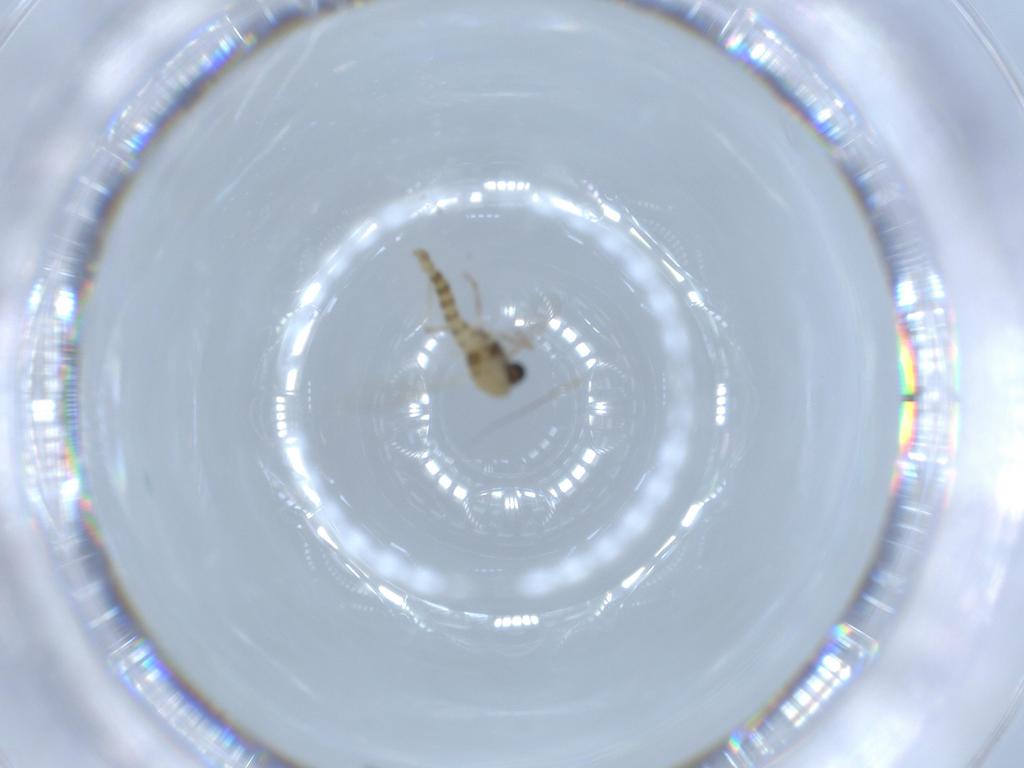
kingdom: Animalia
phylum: Arthropoda
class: Insecta
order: Diptera
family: Chironomidae
